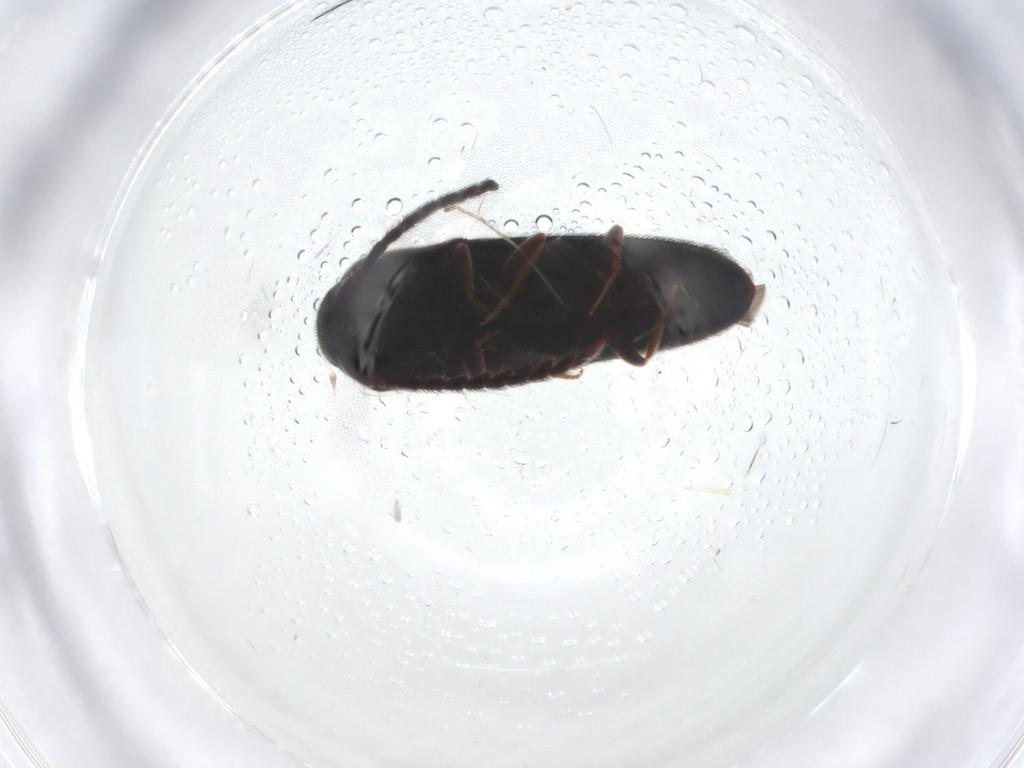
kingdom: Animalia
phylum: Arthropoda
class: Insecta
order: Coleoptera
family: Eucnemidae
